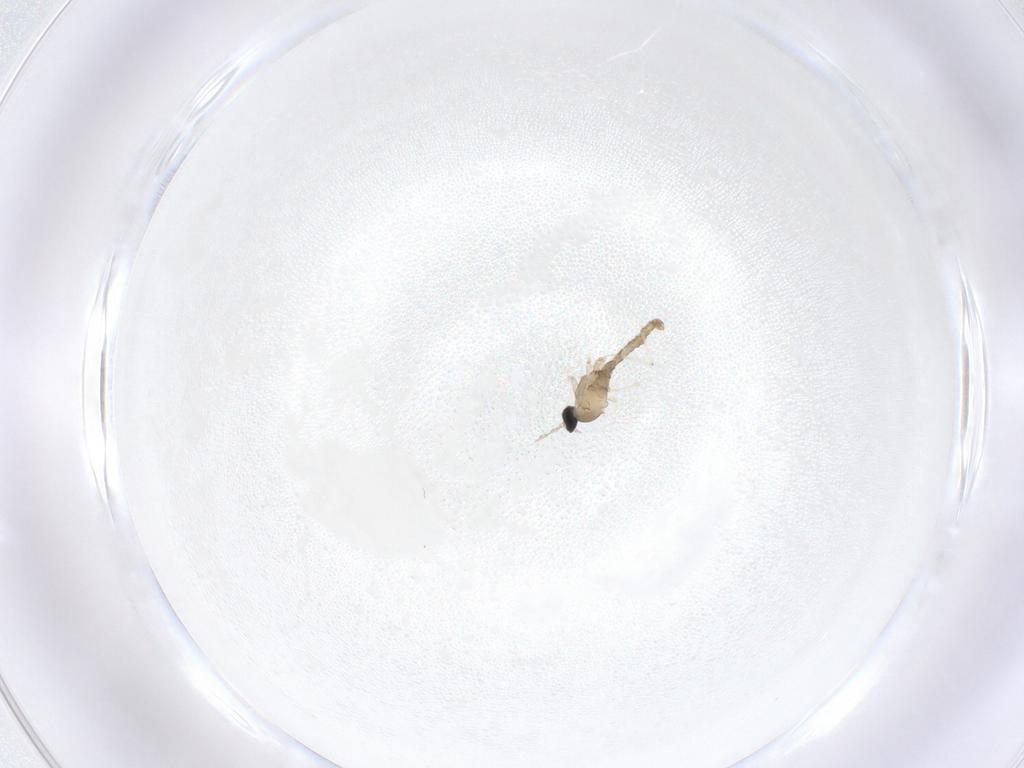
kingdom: Animalia
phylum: Arthropoda
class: Insecta
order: Diptera
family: Cecidomyiidae
